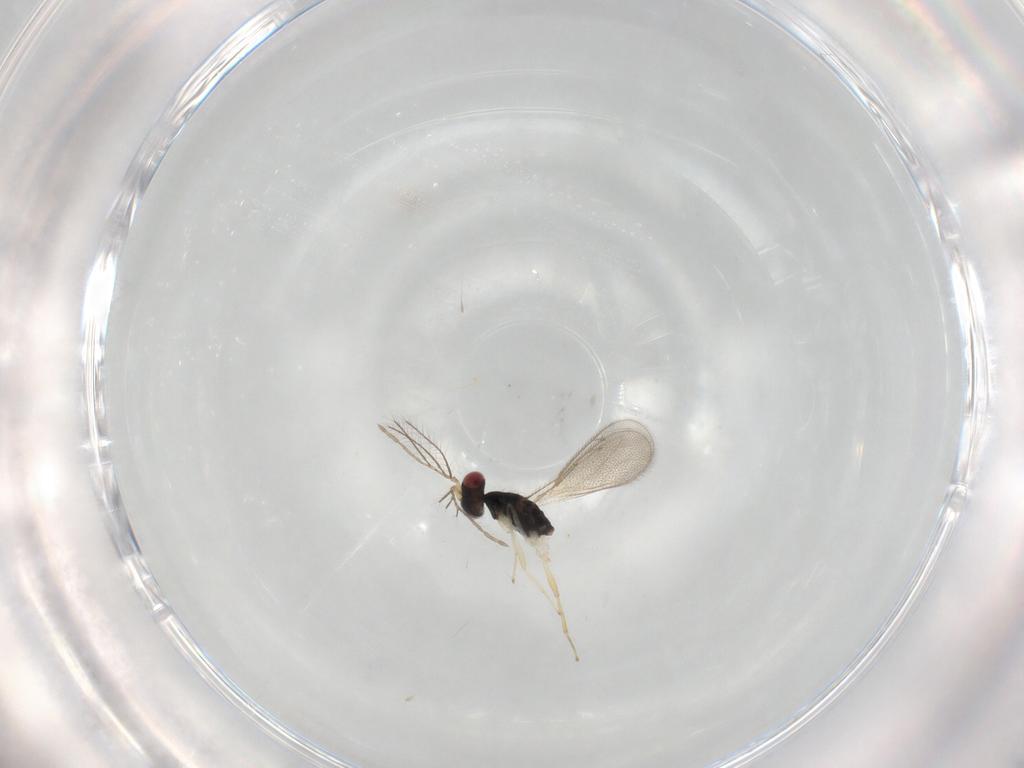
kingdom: Animalia
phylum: Arthropoda
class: Insecta
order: Hymenoptera
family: Eulophidae
